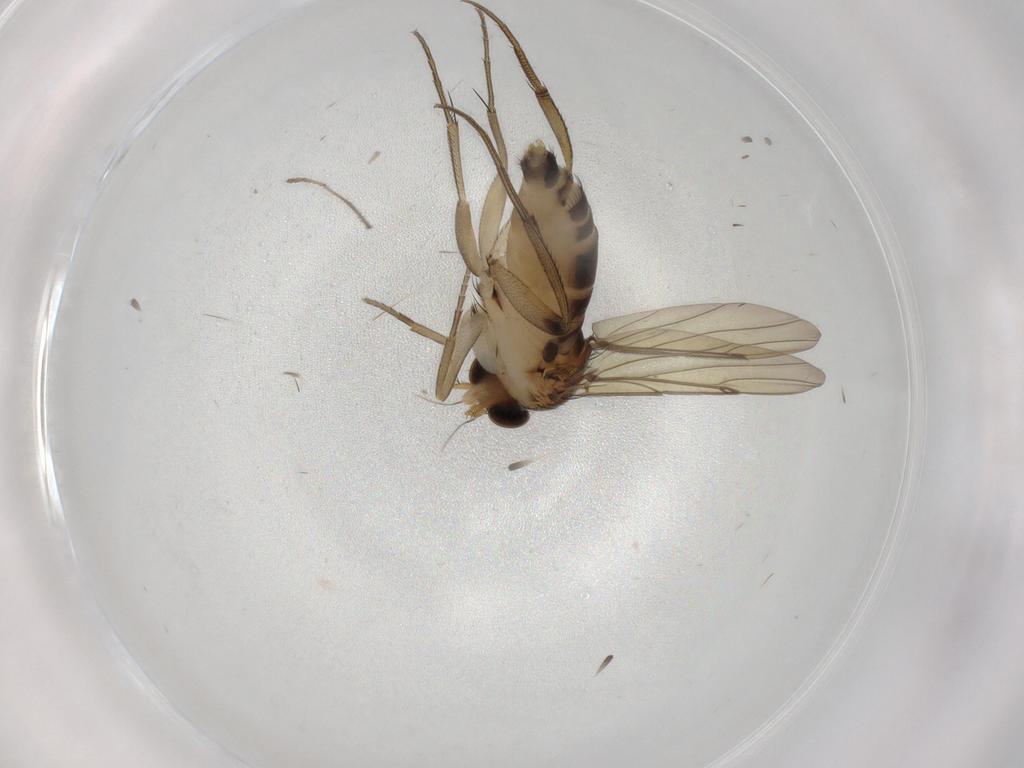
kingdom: Animalia
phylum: Arthropoda
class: Insecta
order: Diptera
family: Phoridae
